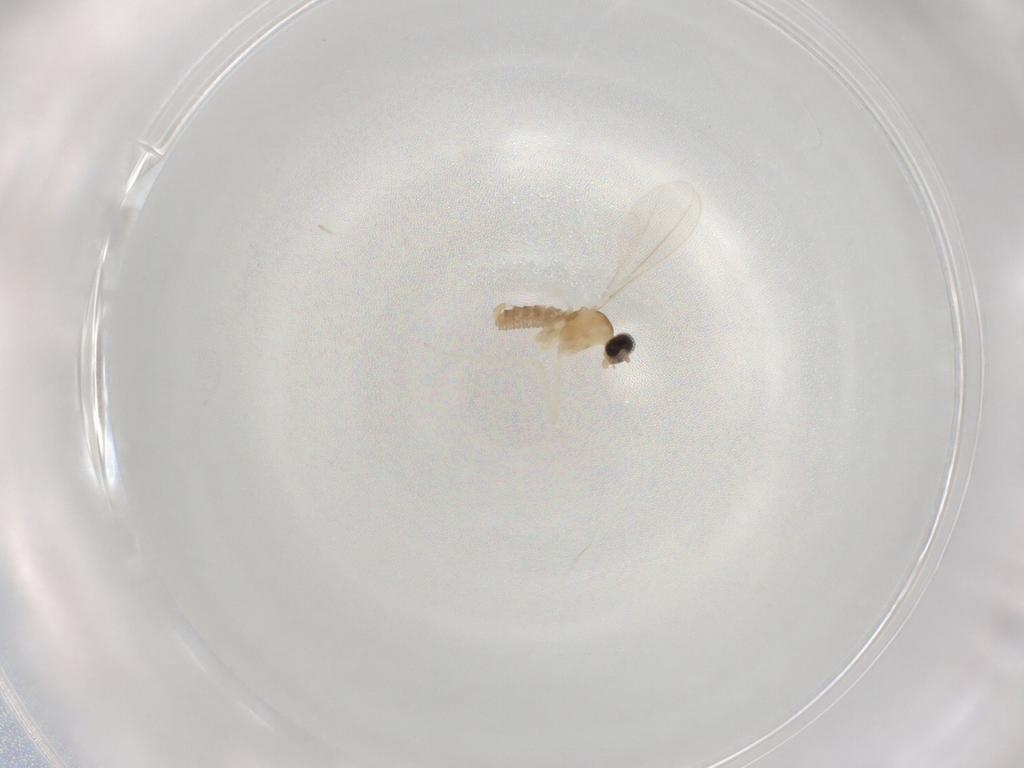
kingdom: Animalia
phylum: Arthropoda
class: Insecta
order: Diptera
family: Cecidomyiidae
